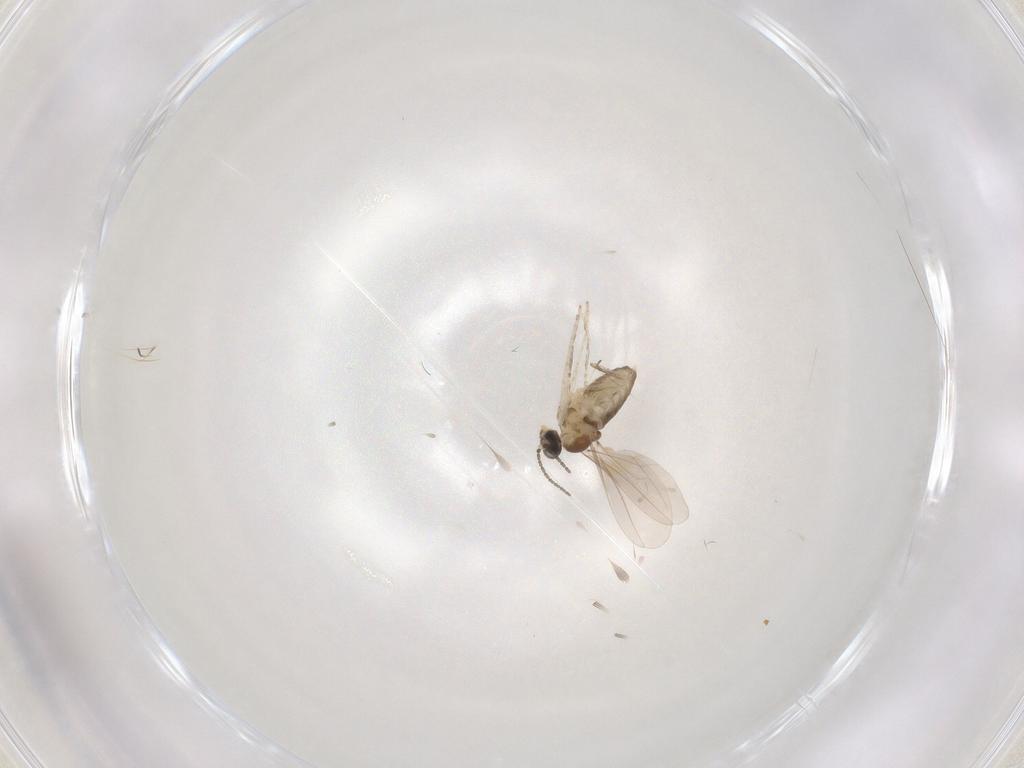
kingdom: Animalia
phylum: Arthropoda
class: Insecta
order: Diptera
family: Cecidomyiidae
